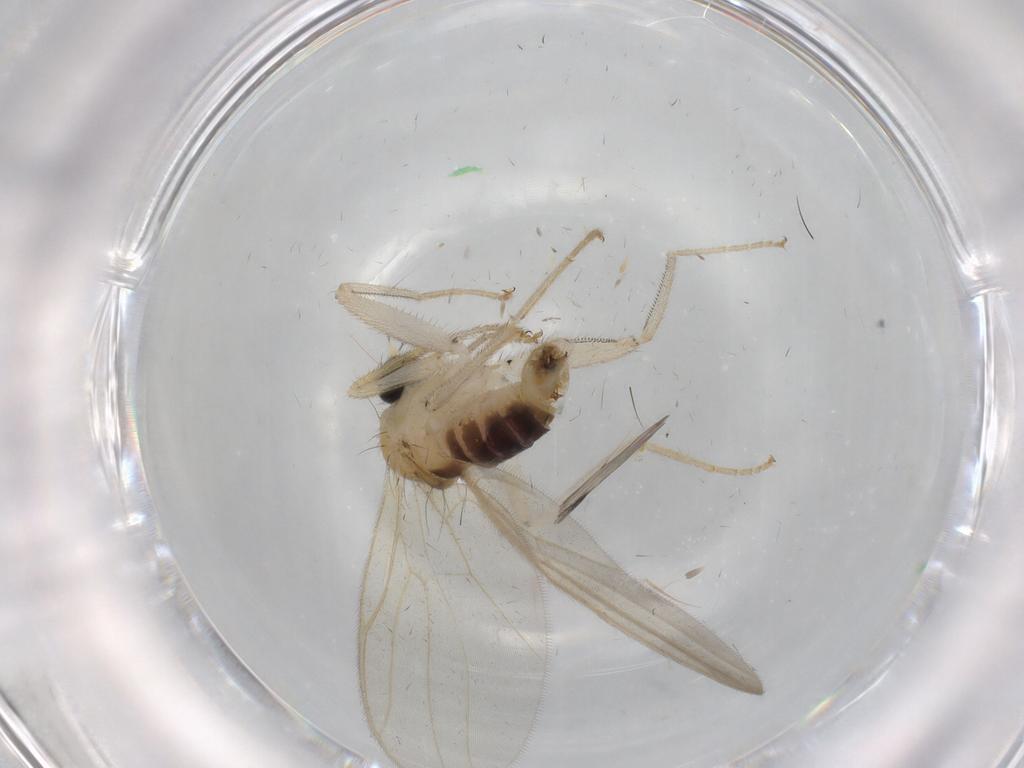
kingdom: Animalia
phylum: Arthropoda
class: Insecta
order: Diptera
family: Hybotidae
